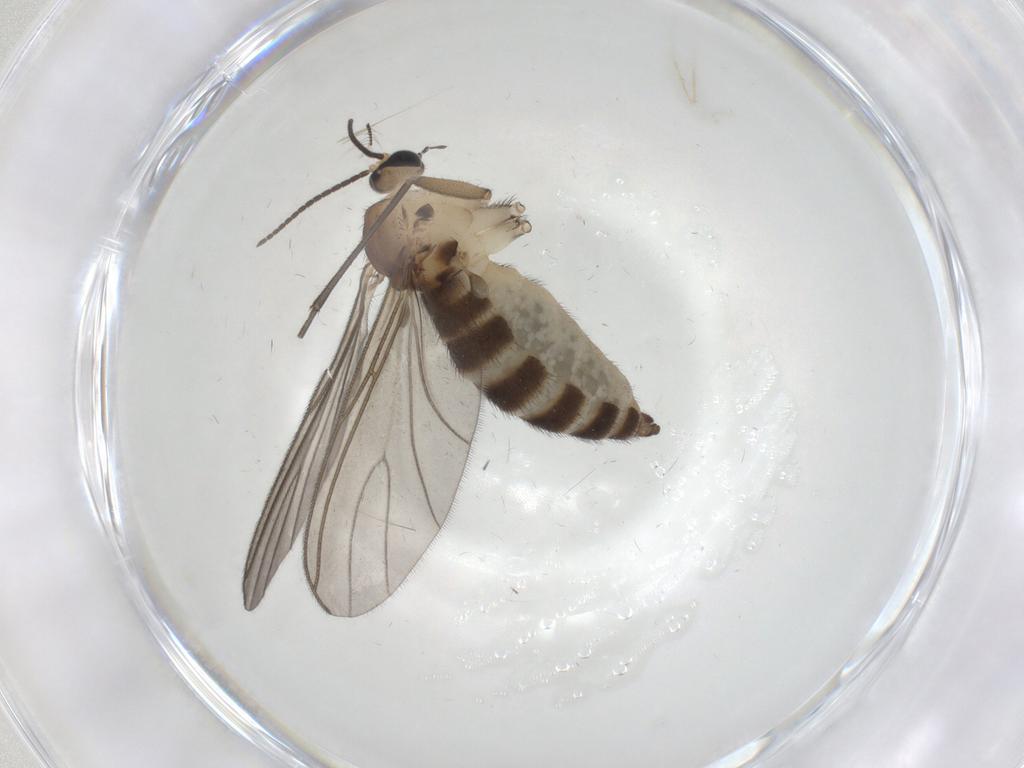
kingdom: Animalia
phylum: Arthropoda
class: Insecta
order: Diptera
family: Sciaridae
